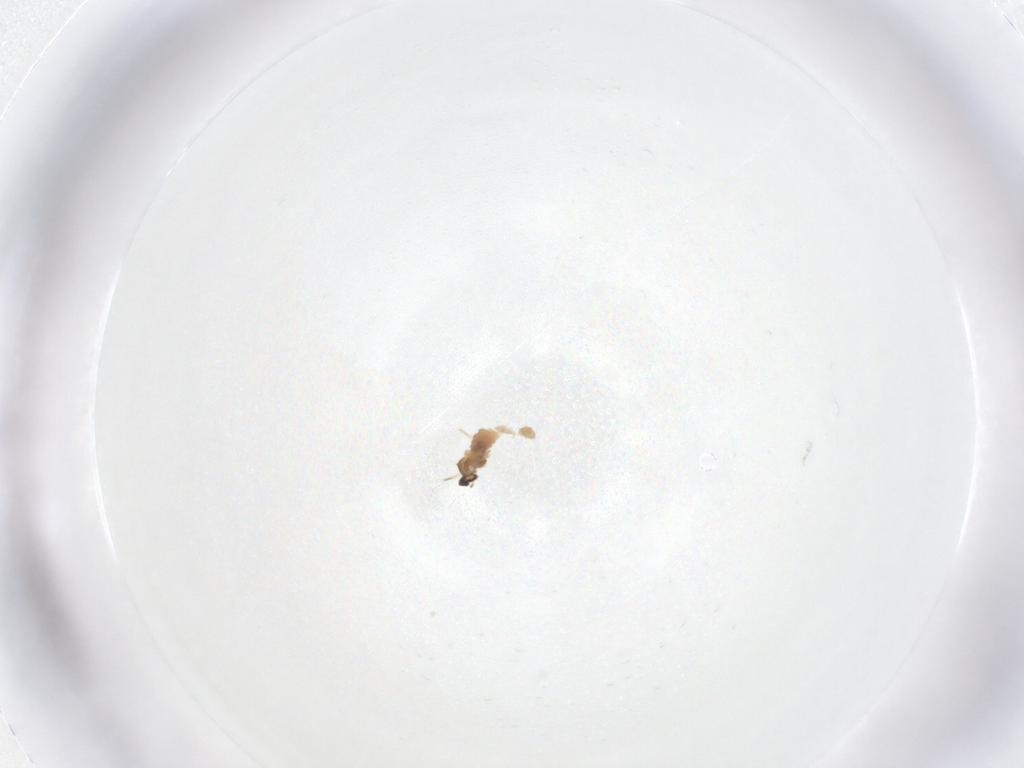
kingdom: Animalia
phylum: Arthropoda
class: Insecta
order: Diptera
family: Cecidomyiidae
